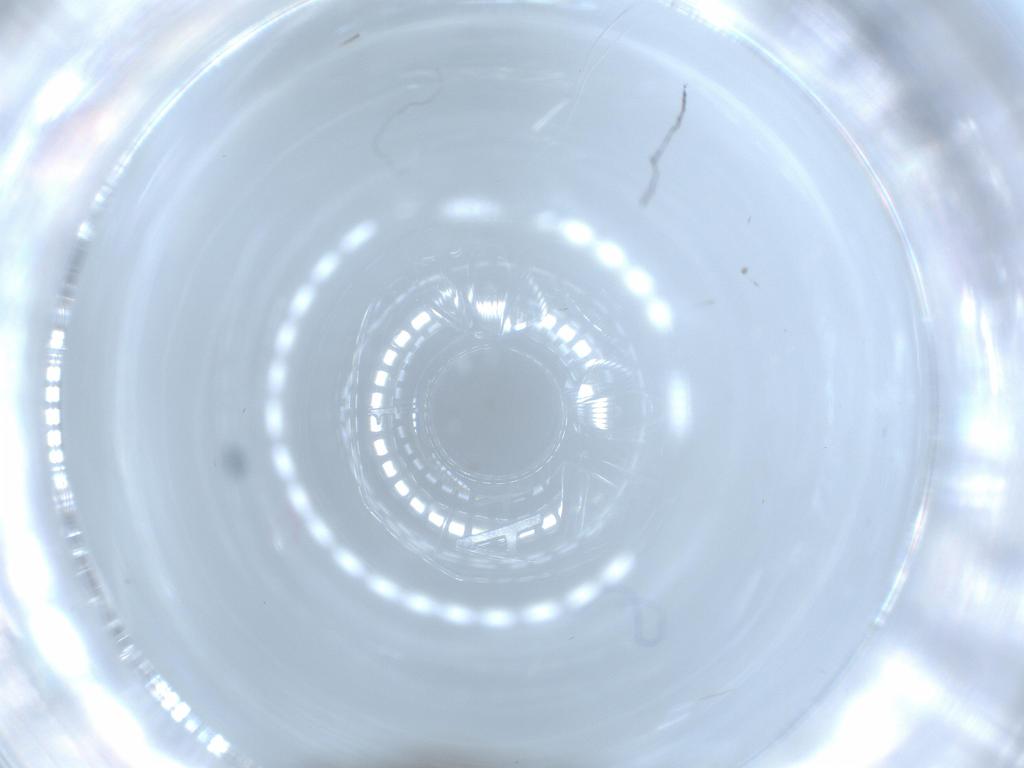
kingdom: Animalia
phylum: Arthropoda
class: Insecta
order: Diptera
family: Sciaridae
